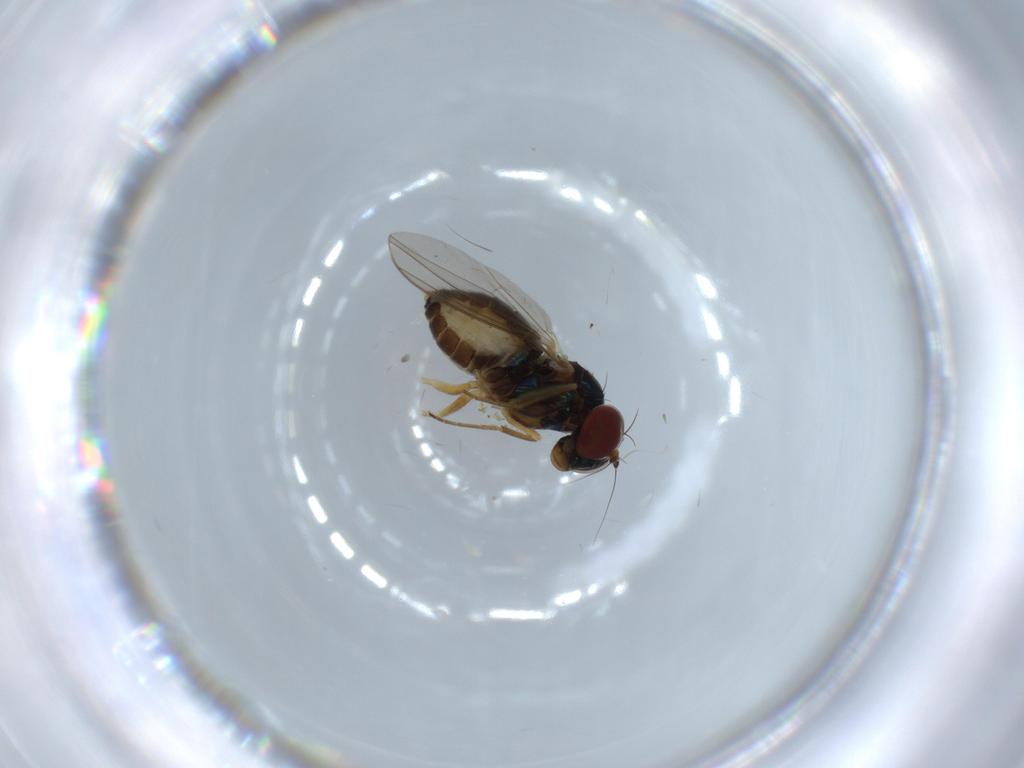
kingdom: Animalia
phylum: Arthropoda
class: Insecta
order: Diptera
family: Dolichopodidae
